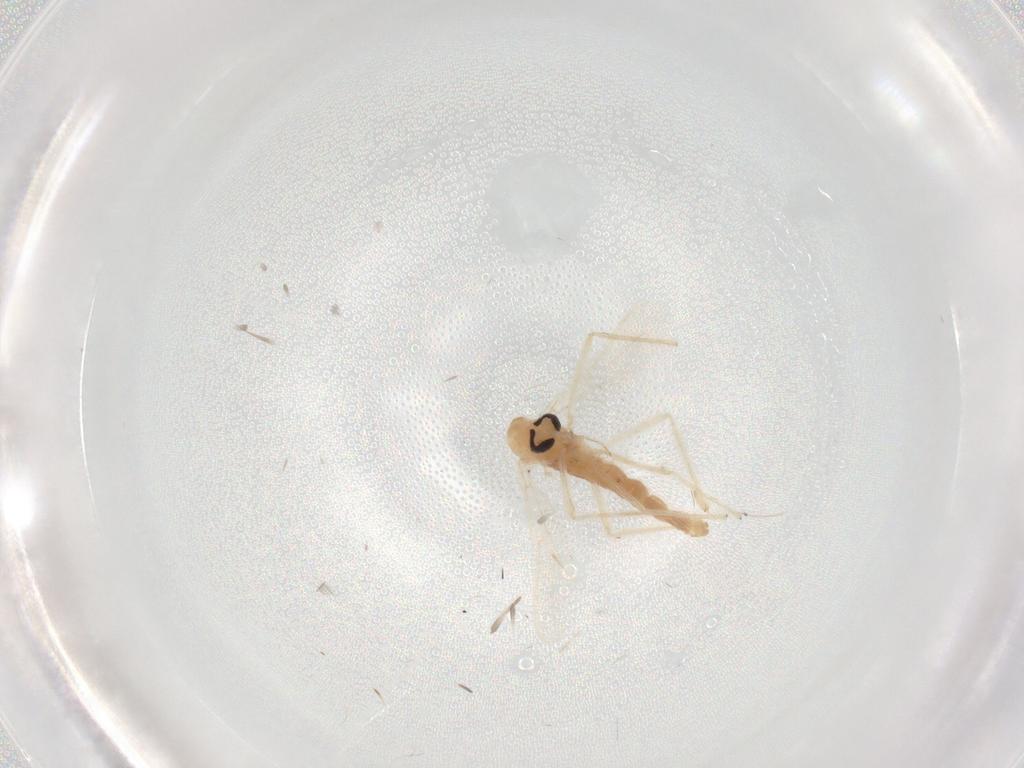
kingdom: Animalia
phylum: Arthropoda
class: Insecta
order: Diptera
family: Chironomidae
